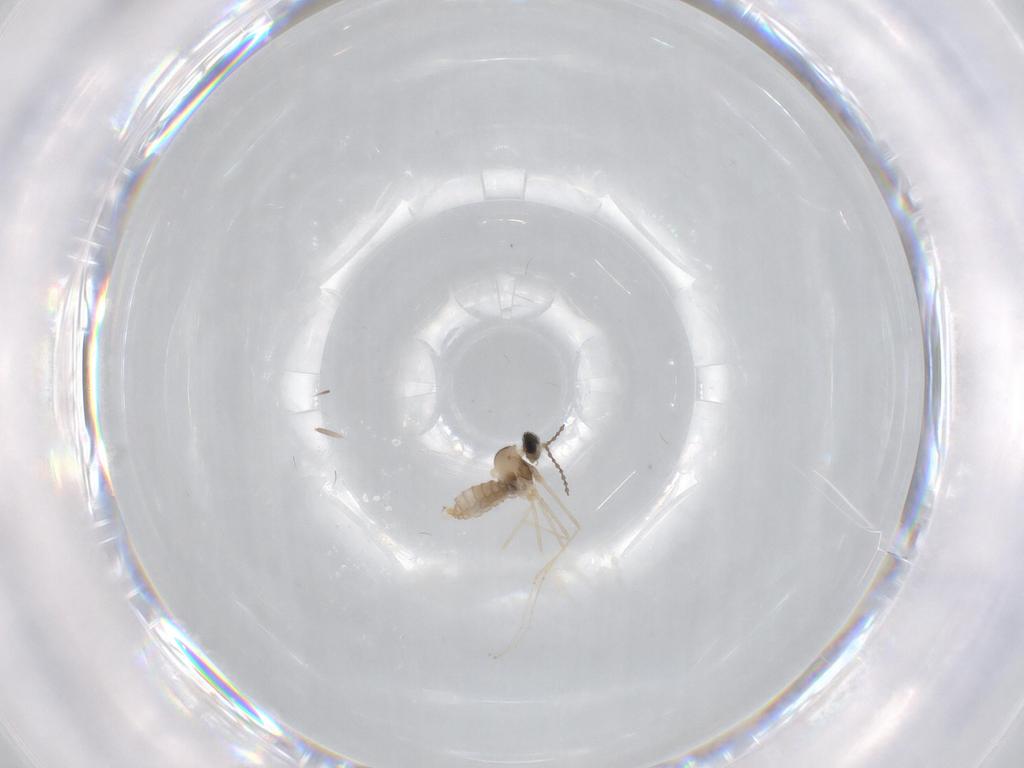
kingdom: Animalia
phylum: Arthropoda
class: Insecta
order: Diptera
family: Cecidomyiidae
